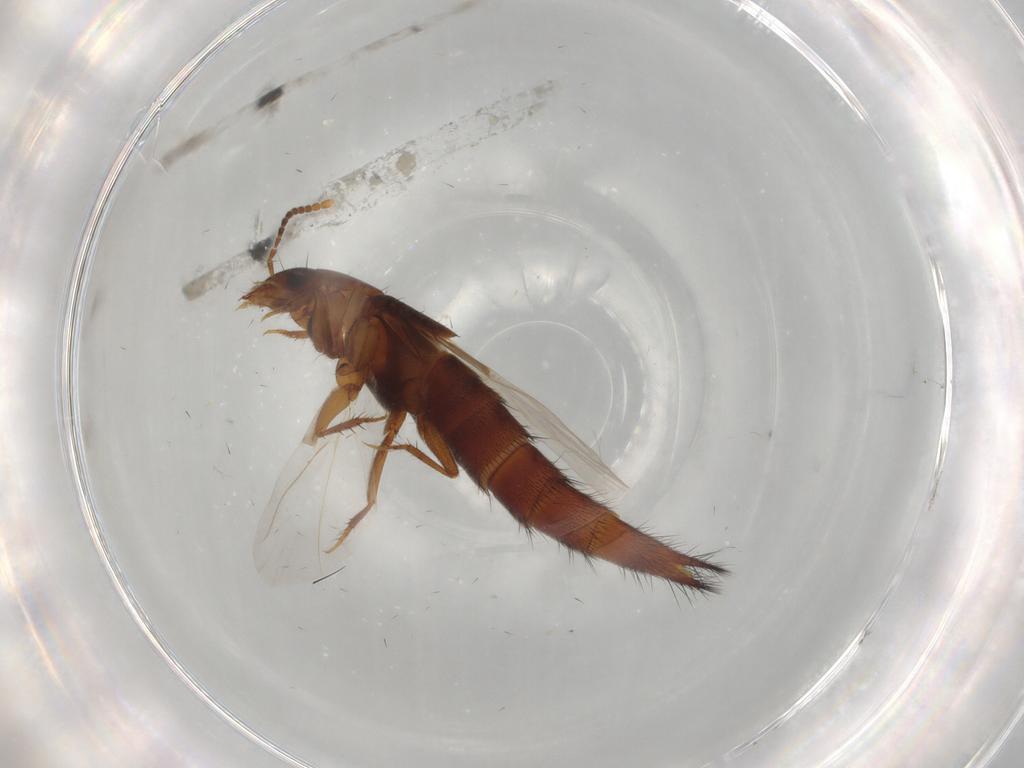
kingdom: Animalia
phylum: Arthropoda
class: Insecta
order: Coleoptera
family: Staphylinidae
